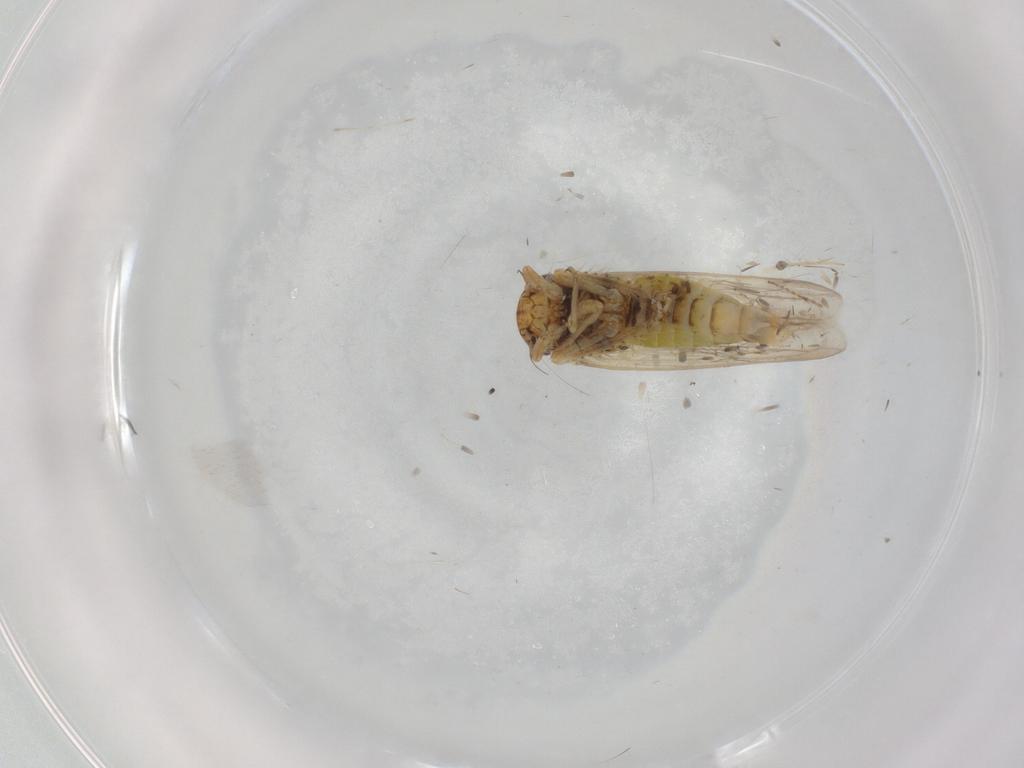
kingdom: Animalia
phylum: Arthropoda
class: Insecta
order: Hemiptera
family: Cicadellidae
